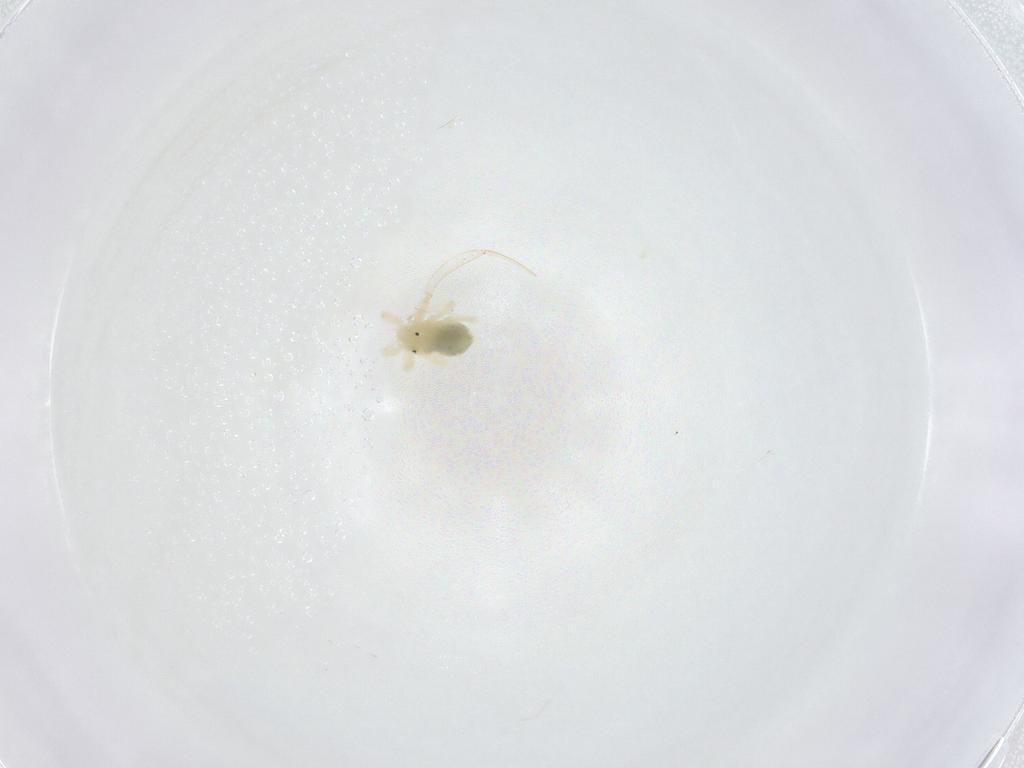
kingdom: Animalia
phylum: Arthropoda
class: Arachnida
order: Trombidiformes
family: Anystidae
